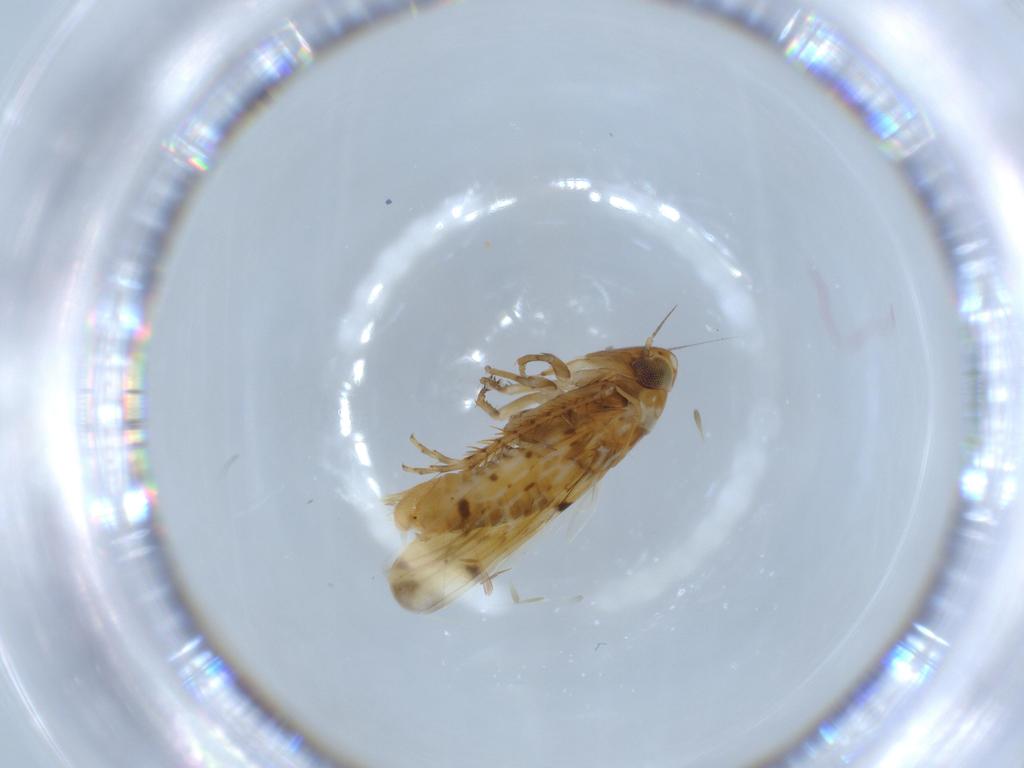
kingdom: Animalia
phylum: Arthropoda
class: Insecta
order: Hemiptera
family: Cicadellidae
